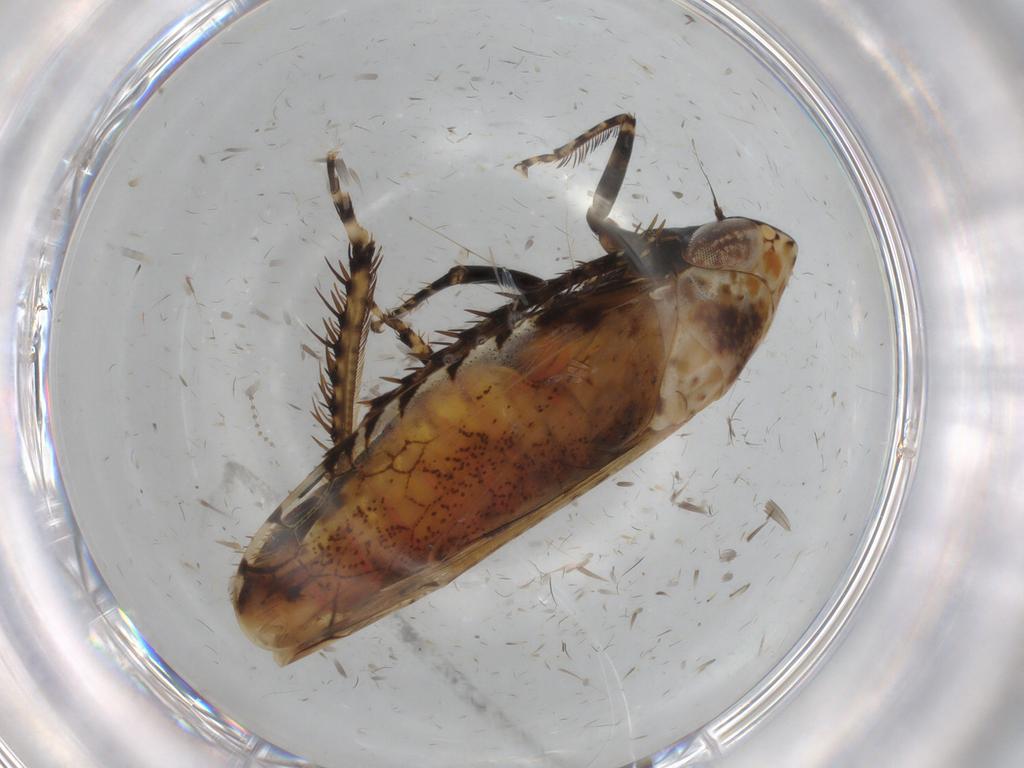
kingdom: Animalia
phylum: Arthropoda
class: Insecta
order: Hemiptera
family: Cicadellidae
